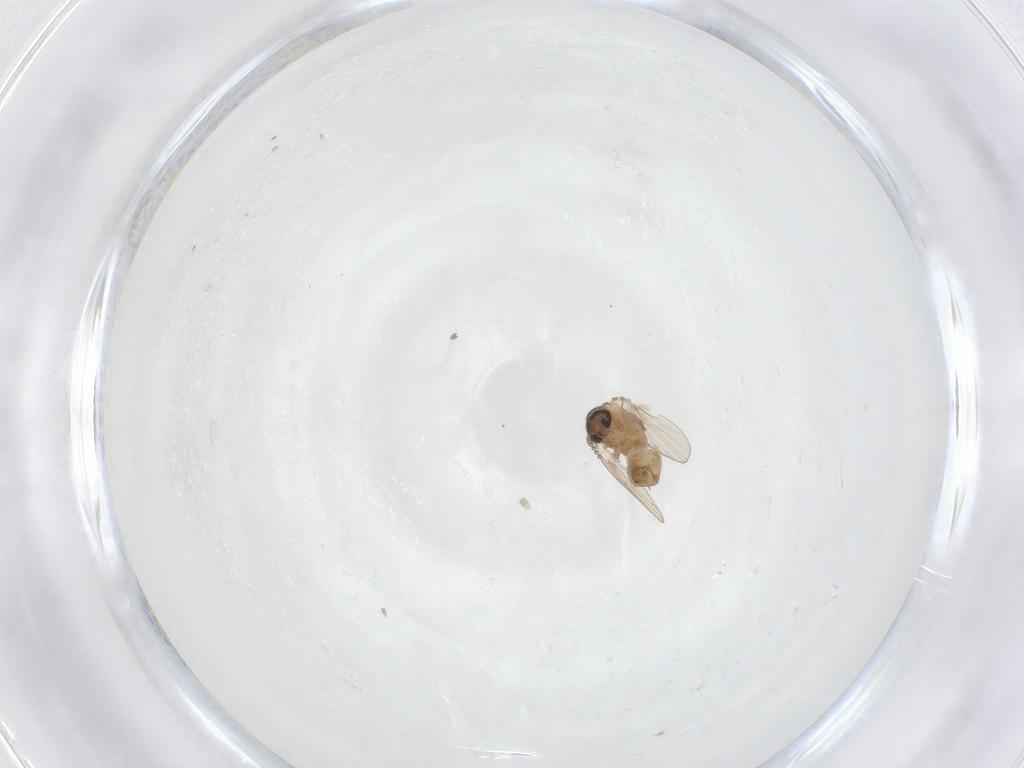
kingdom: Animalia
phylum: Arthropoda
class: Insecta
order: Diptera
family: Psychodidae
